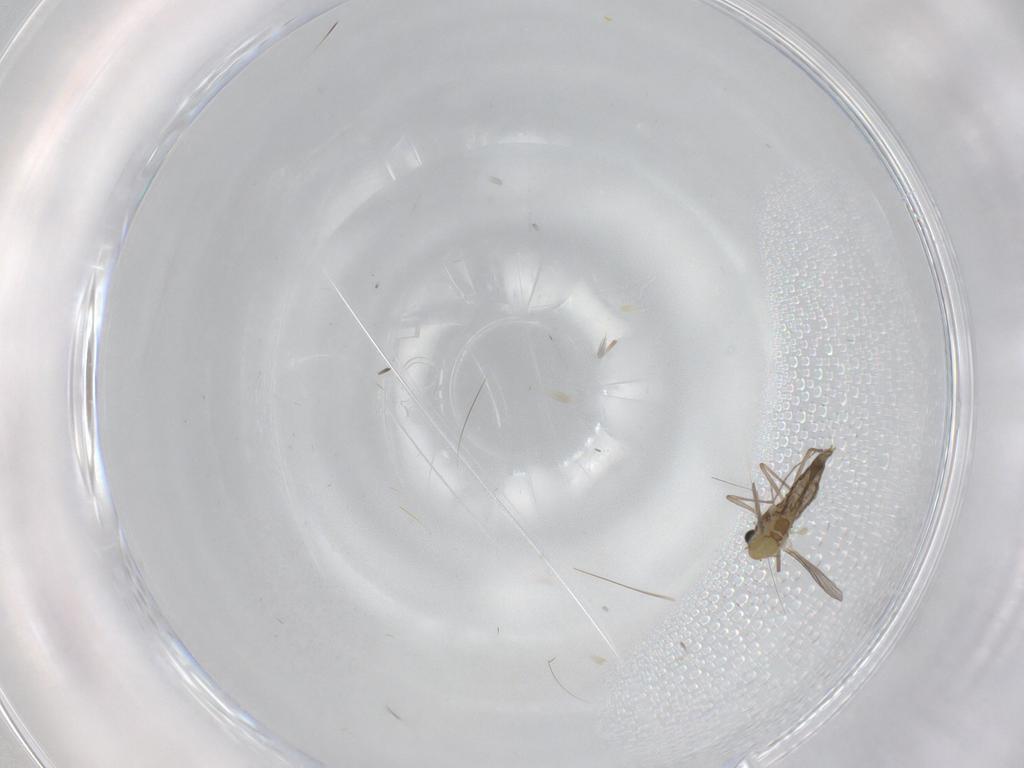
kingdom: Animalia
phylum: Arthropoda
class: Insecta
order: Diptera
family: Chironomidae
